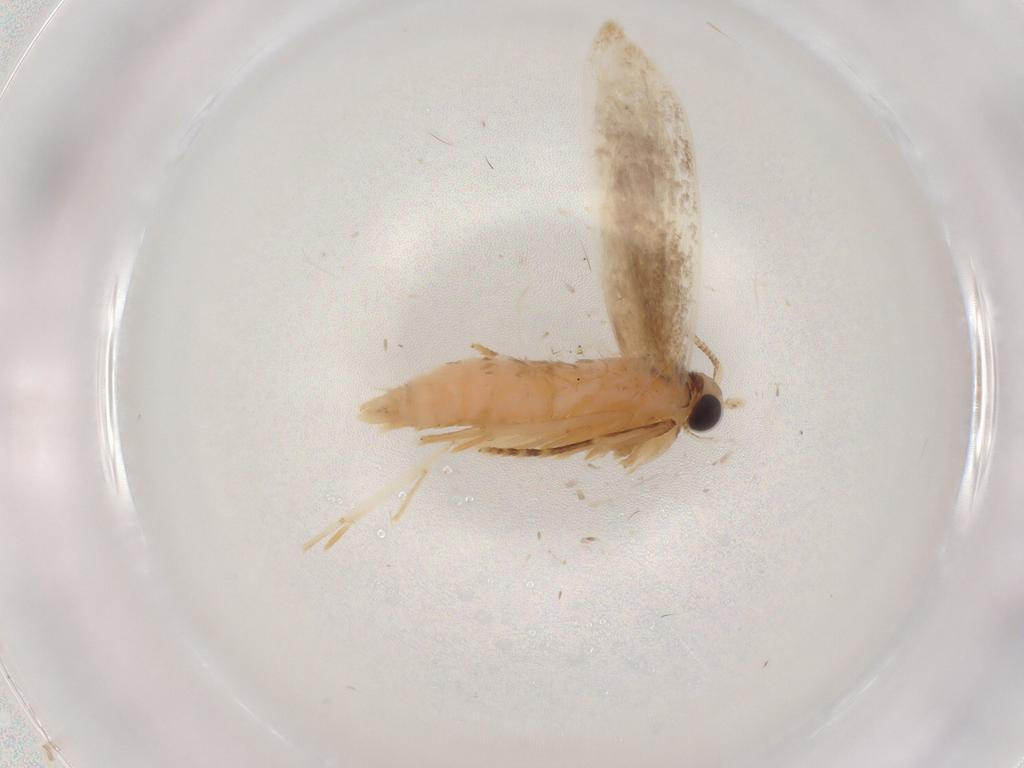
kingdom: Animalia
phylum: Arthropoda
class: Insecta
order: Lepidoptera
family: Tineidae
